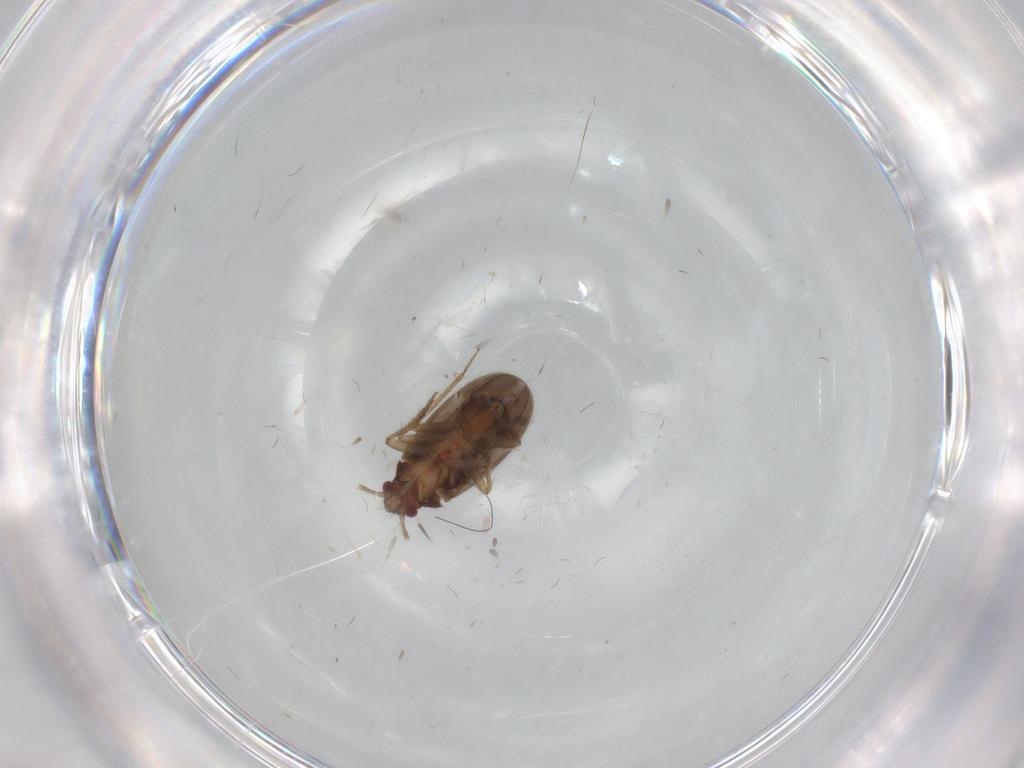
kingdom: Animalia
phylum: Arthropoda
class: Insecta
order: Hemiptera
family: Ceratocombidae
